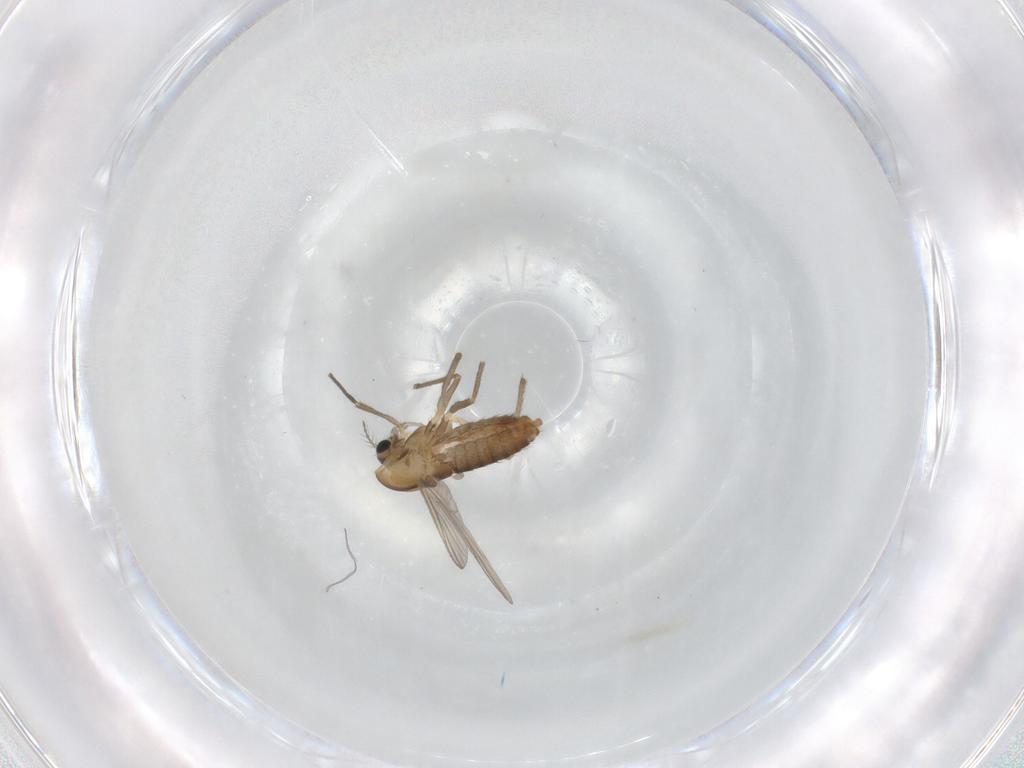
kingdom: Animalia
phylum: Arthropoda
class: Insecta
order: Diptera
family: Chironomidae
